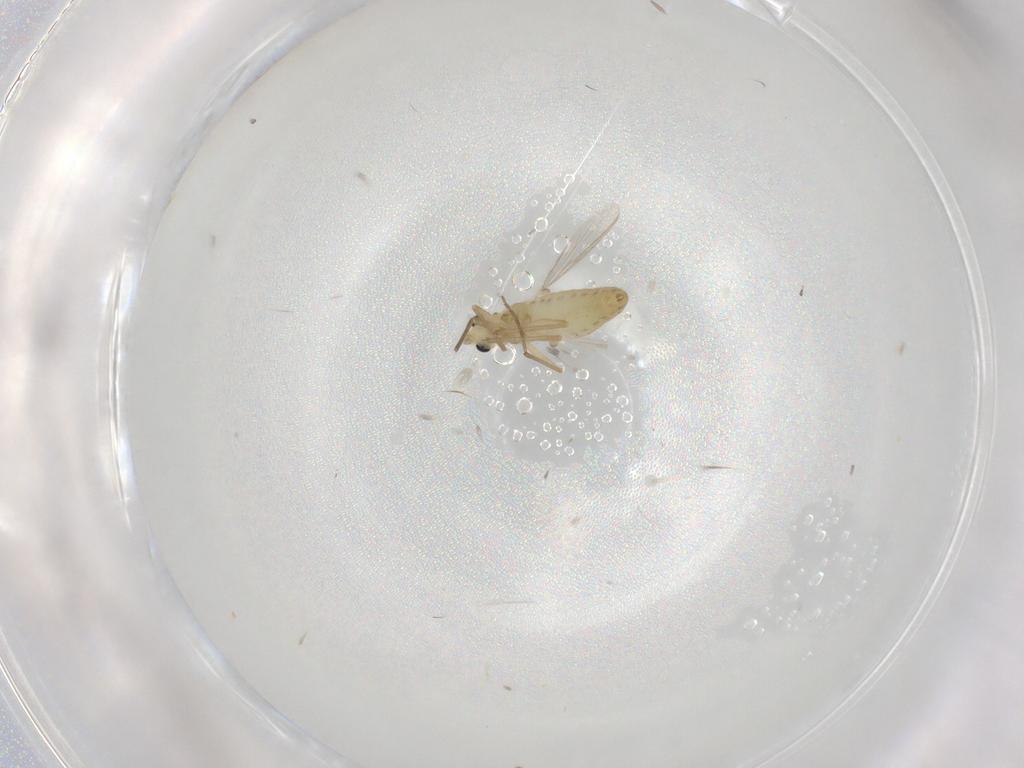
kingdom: Animalia
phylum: Arthropoda
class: Insecta
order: Diptera
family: Chironomidae
